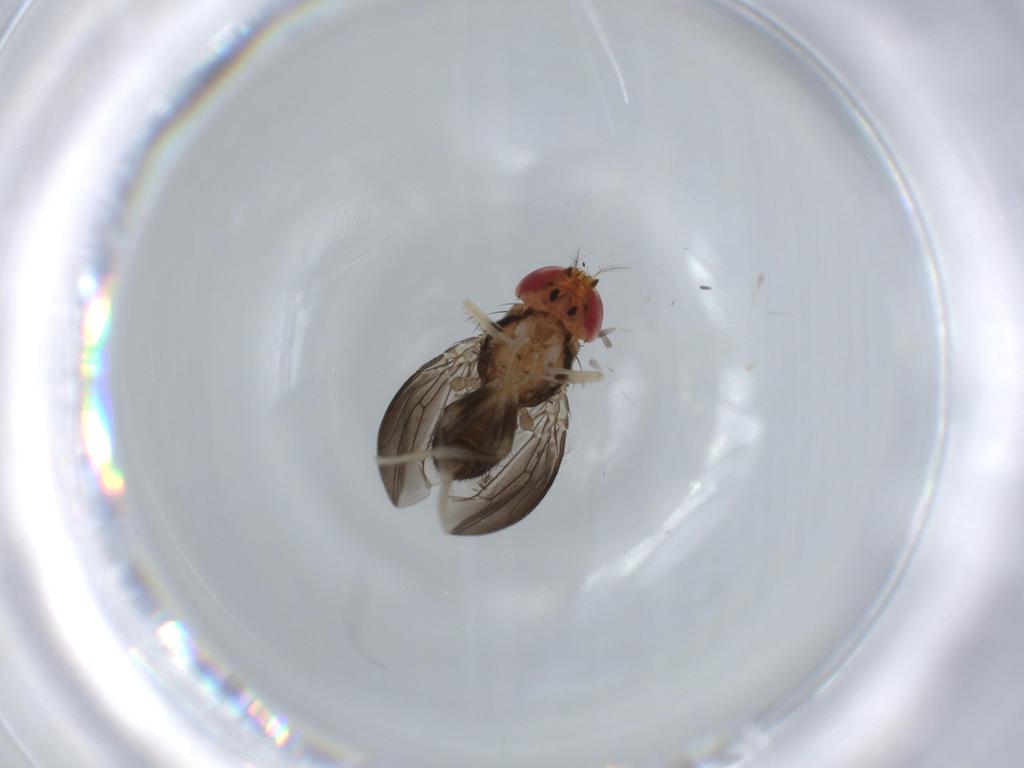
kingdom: Animalia
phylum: Arthropoda
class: Insecta
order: Diptera
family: Drosophilidae
